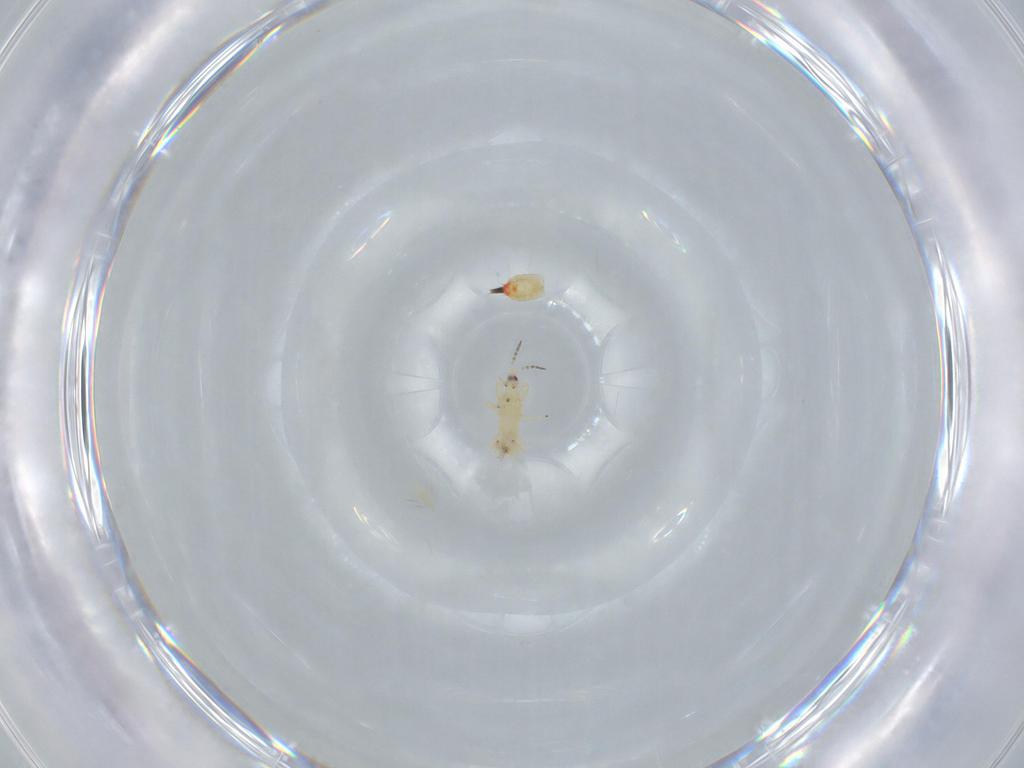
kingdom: Animalia
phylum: Arthropoda
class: Insecta
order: Thysanoptera
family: Phlaeothripidae
